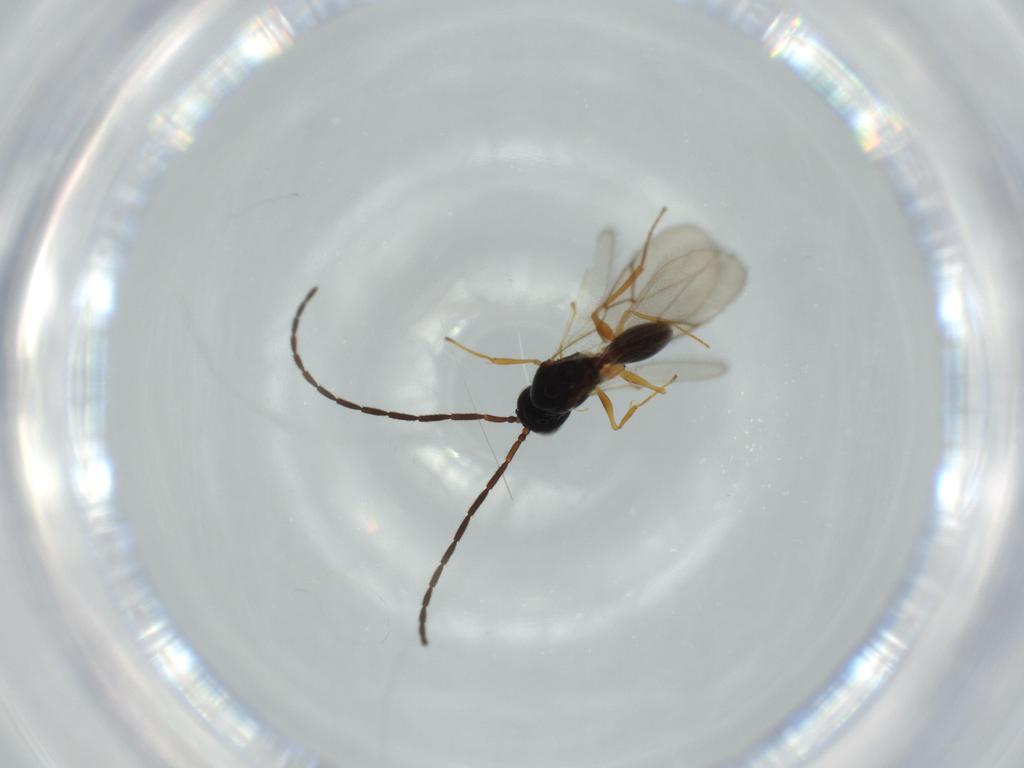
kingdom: Animalia
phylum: Arthropoda
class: Insecta
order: Hymenoptera
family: Figitidae
